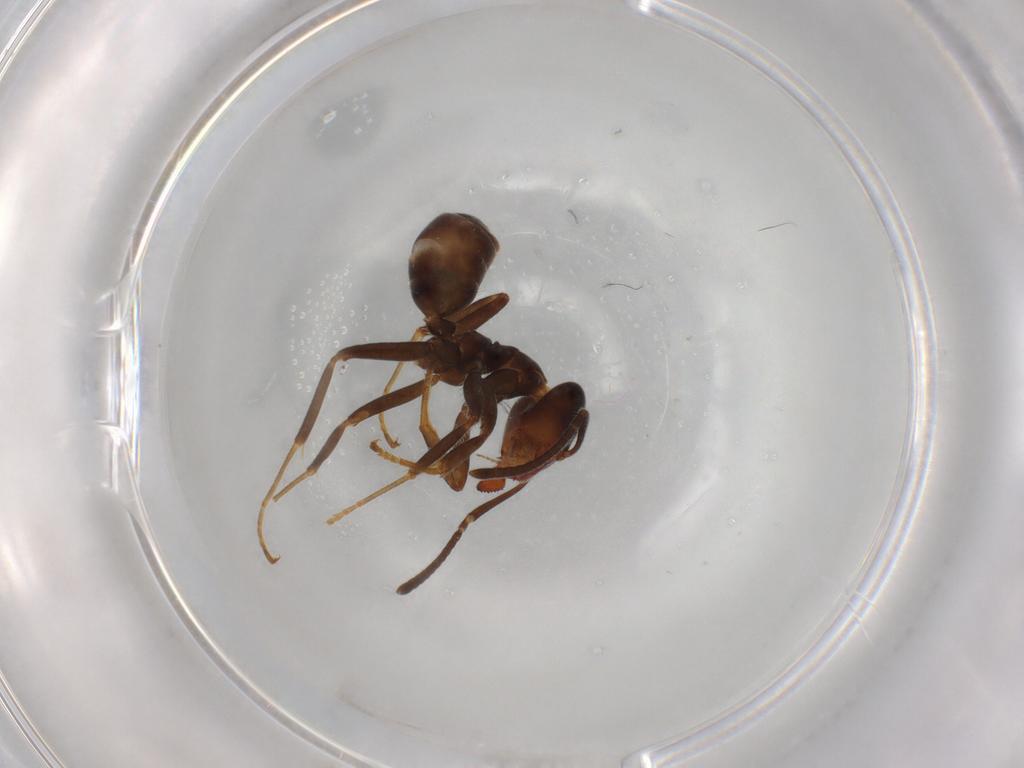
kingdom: Animalia
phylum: Arthropoda
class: Insecta
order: Hymenoptera
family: Formicidae
